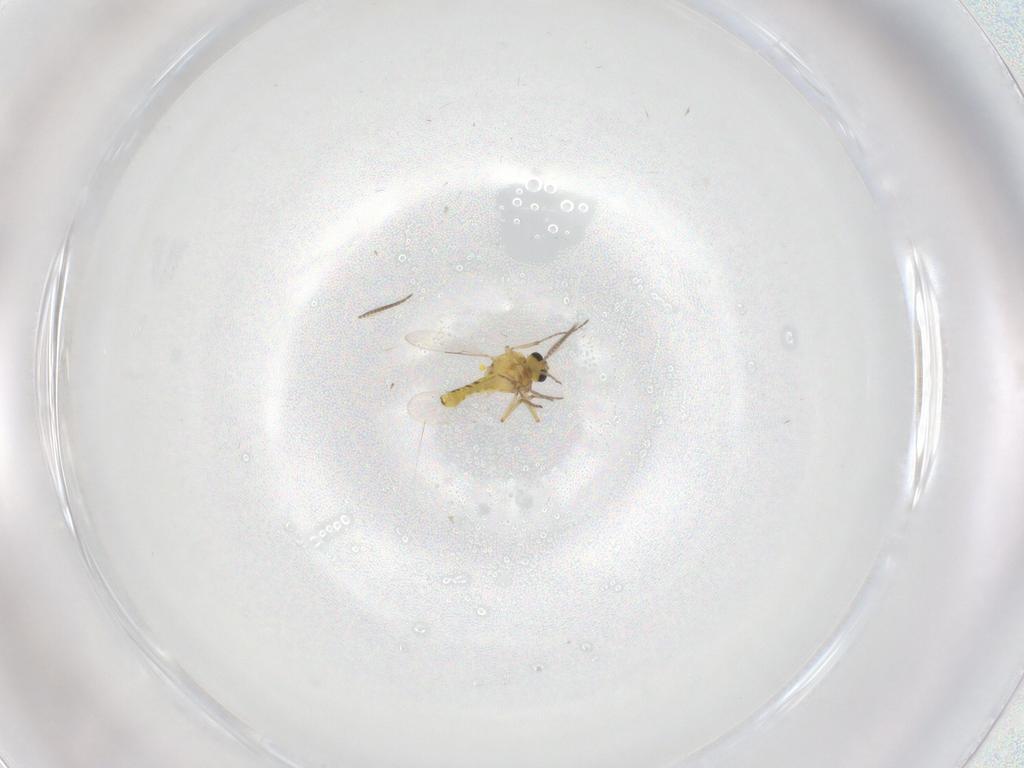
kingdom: Animalia
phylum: Arthropoda
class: Insecta
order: Diptera
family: Ceratopogonidae
